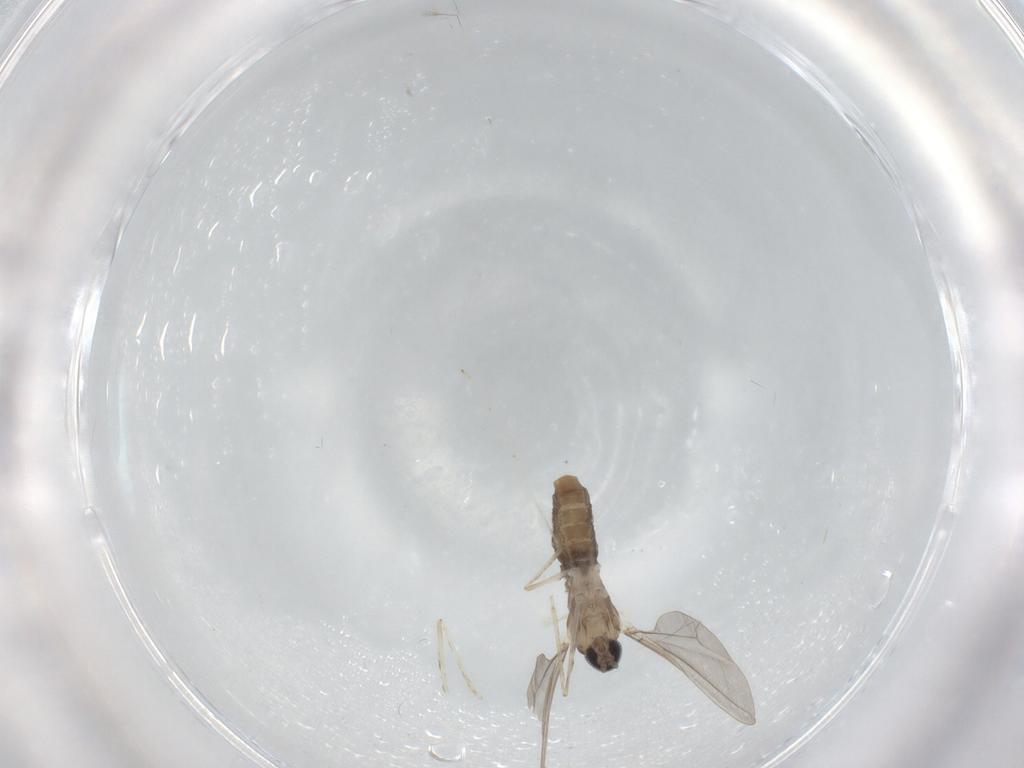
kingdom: Animalia
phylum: Arthropoda
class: Insecta
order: Diptera
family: Cecidomyiidae
